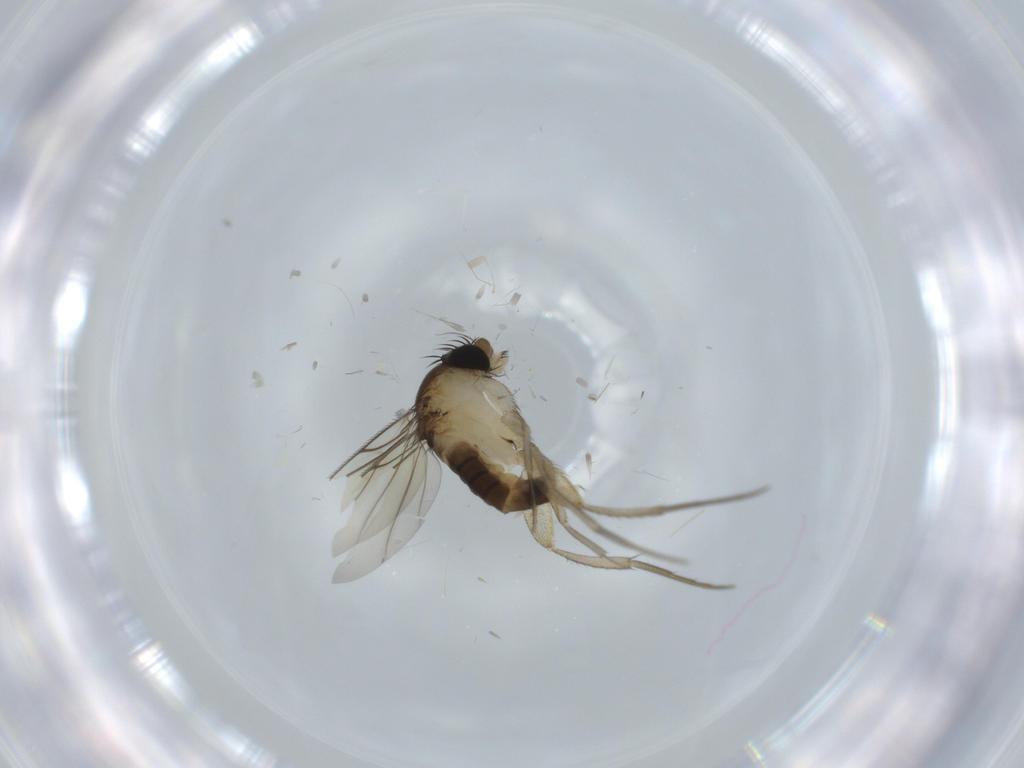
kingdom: Animalia
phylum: Arthropoda
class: Insecta
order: Diptera
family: Phoridae
